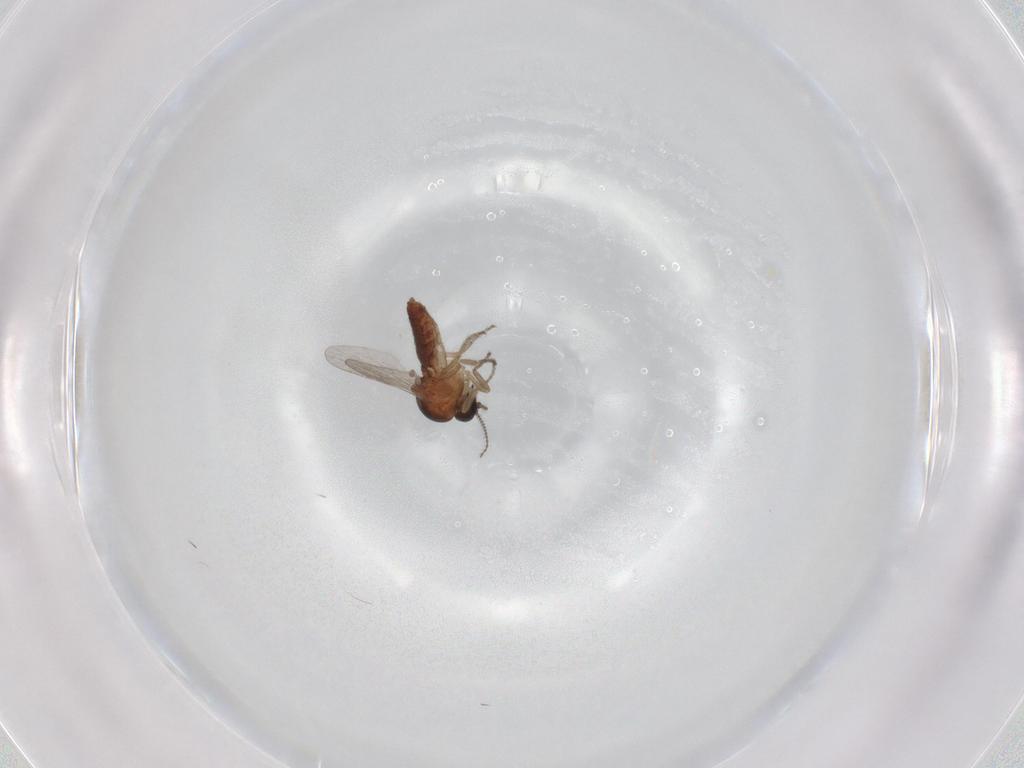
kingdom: Animalia
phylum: Arthropoda
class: Insecta
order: Diptera
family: Ceratopogonidae
